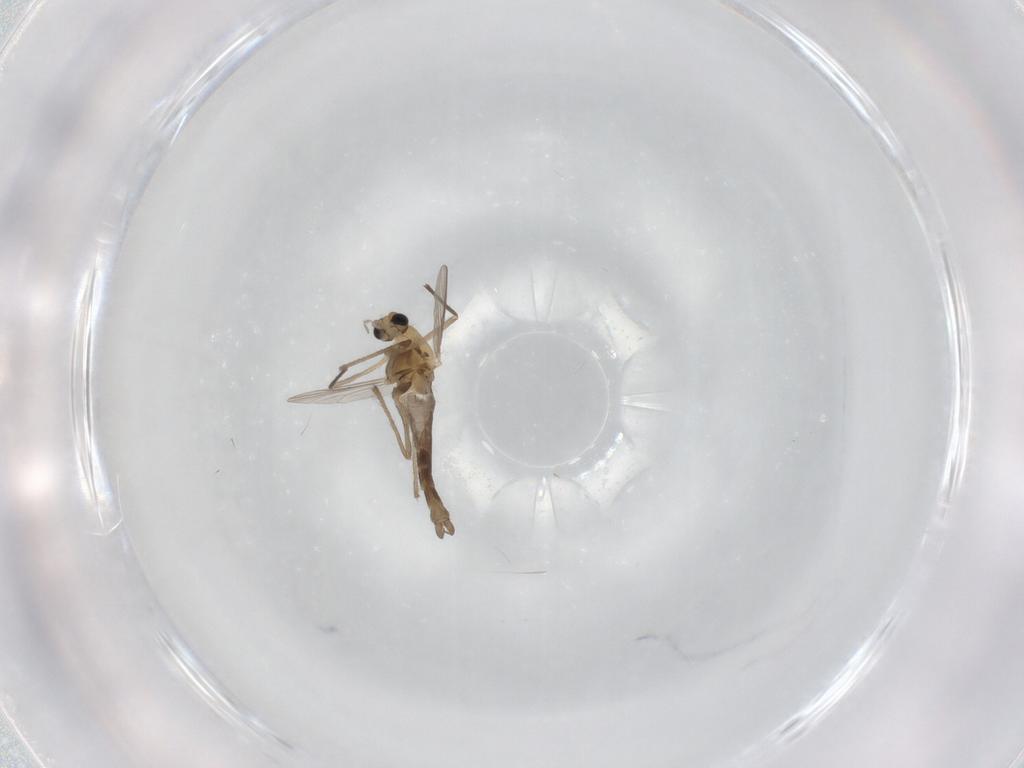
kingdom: Animalia
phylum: Arthropoda
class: Insecta
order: Diptera
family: Chironomidae
